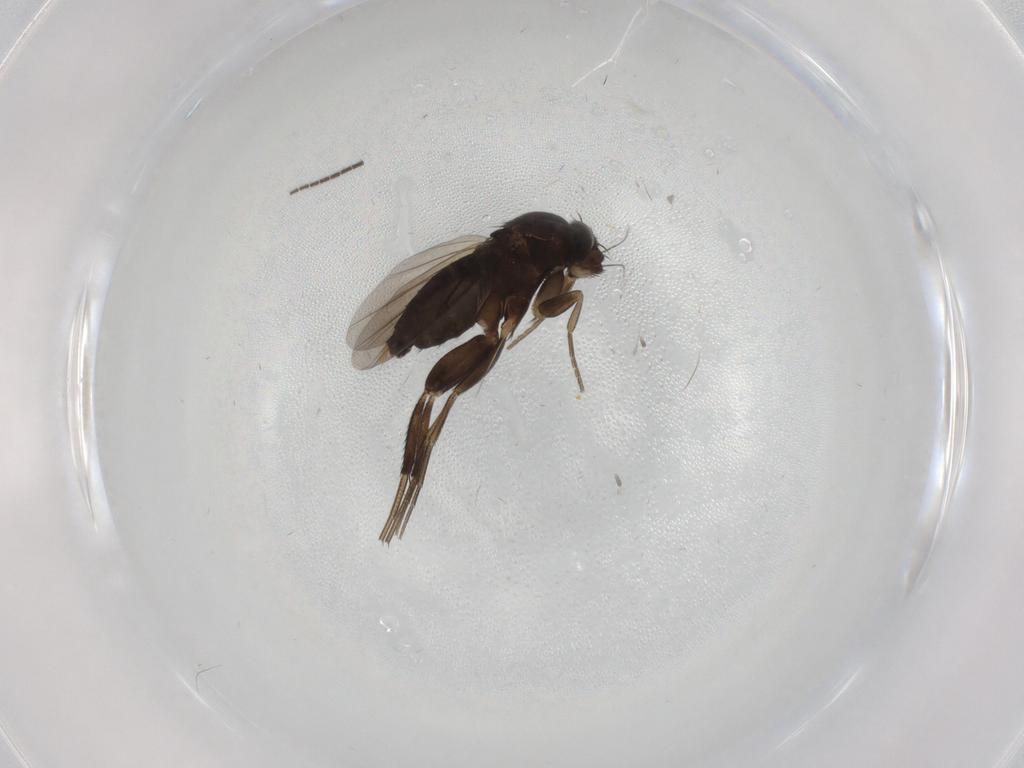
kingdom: Animalia
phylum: Arthropoda
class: Insecta
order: Diptera
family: Phoridae
